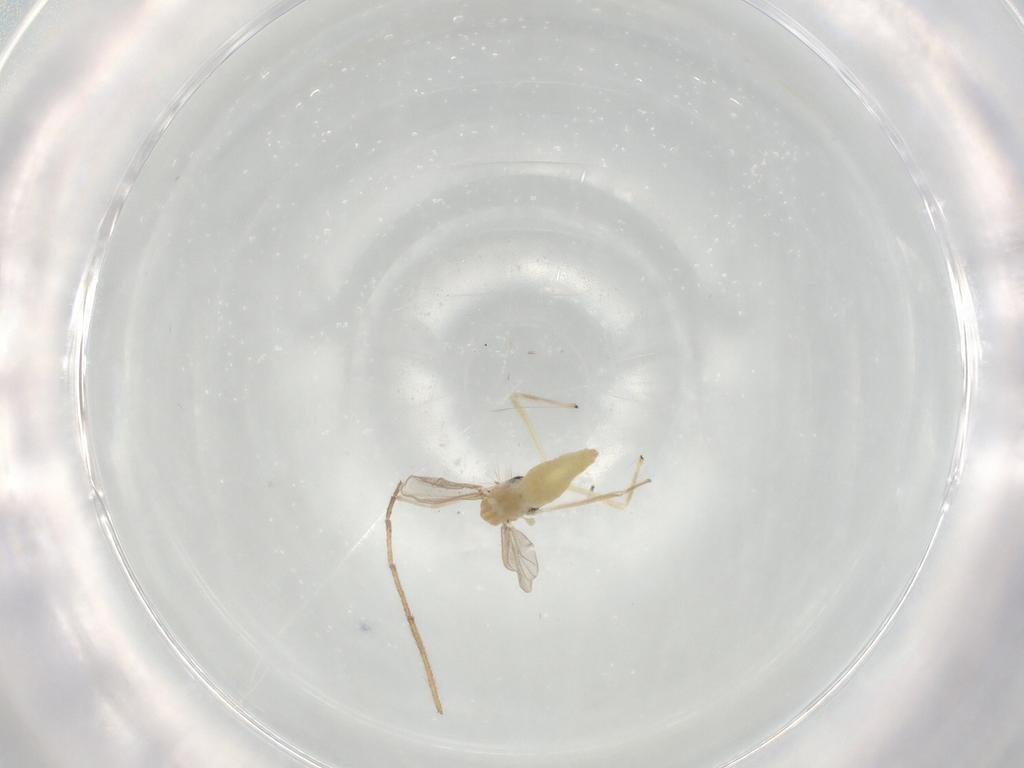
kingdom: Animalia
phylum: Arthropoda
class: Insecta
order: Diptera
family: Chironomidae
